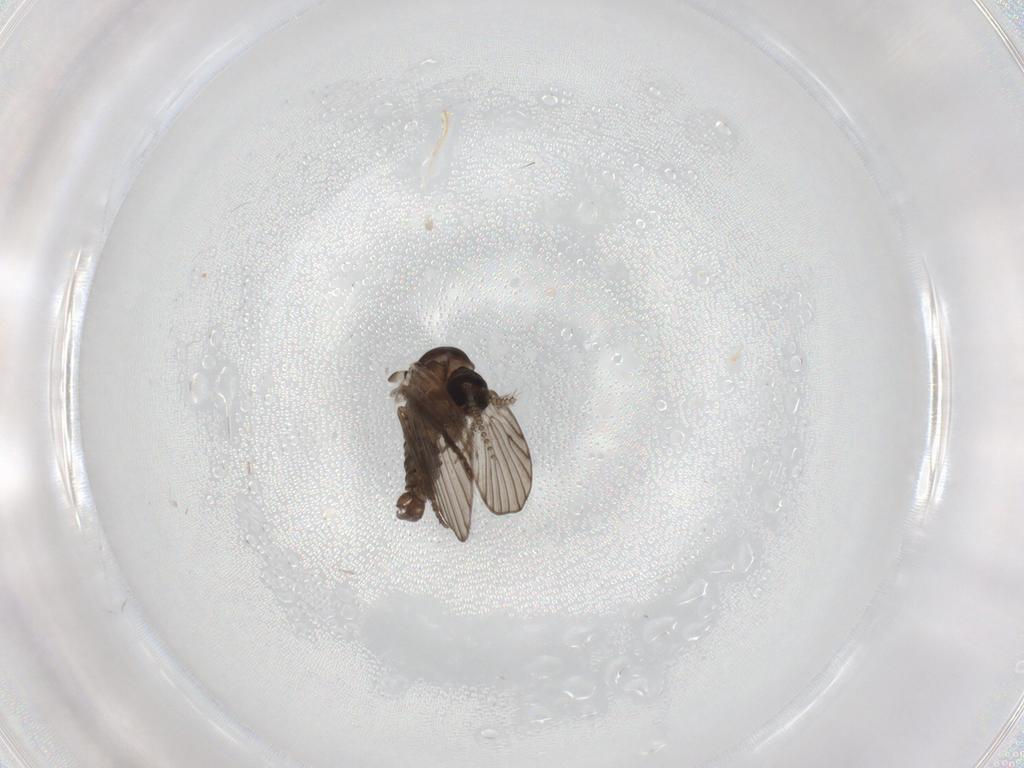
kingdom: Animalia
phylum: Arthropoda
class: Insecta
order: Diptera
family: Psychodidae
